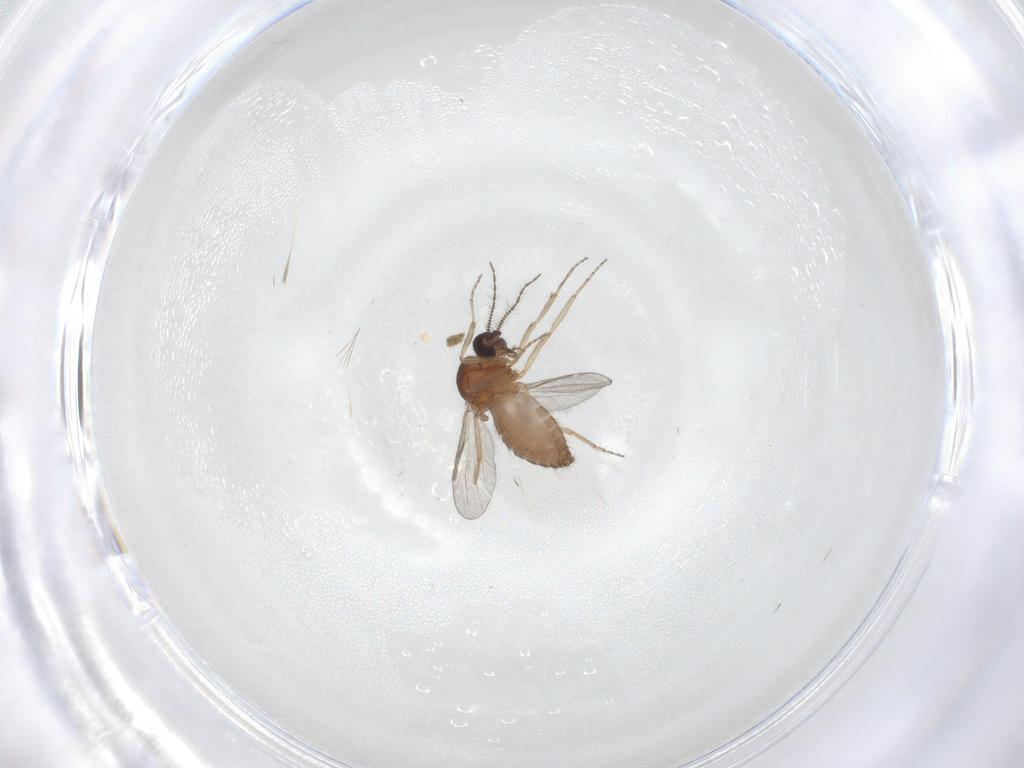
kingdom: Animalia
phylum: Arthropoda
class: Insecta
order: Diptera
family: Ceratopogonidae
